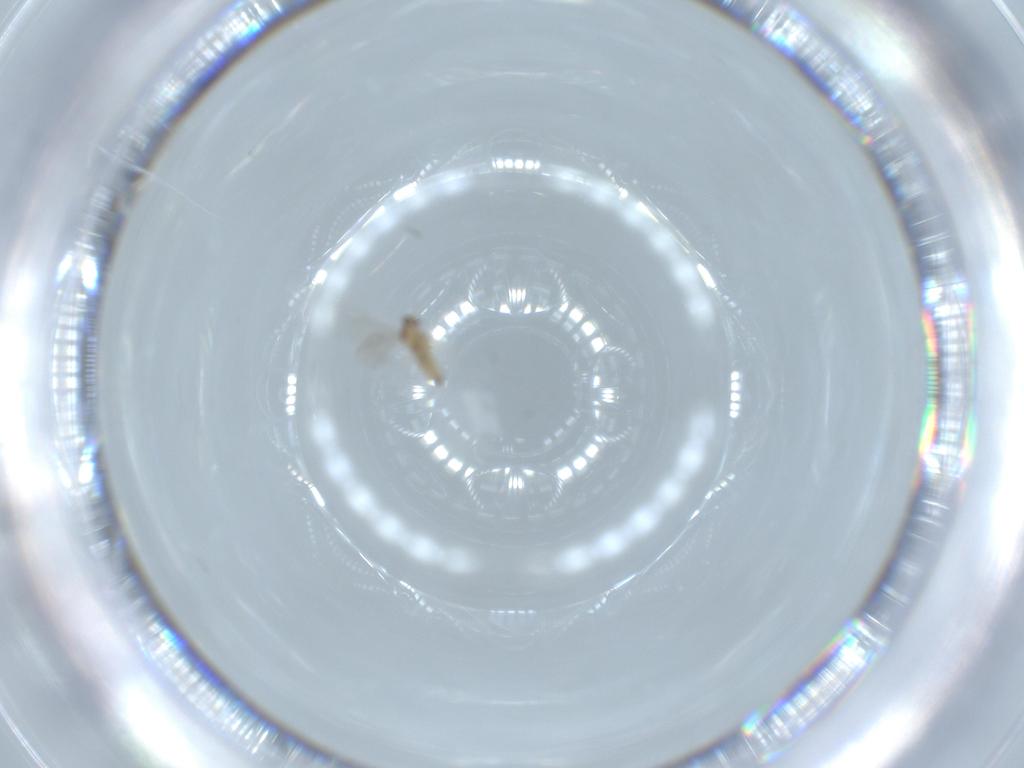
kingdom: Animalia
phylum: Arthropoda
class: Insecta
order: Diptera
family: Cecidomyiidae
